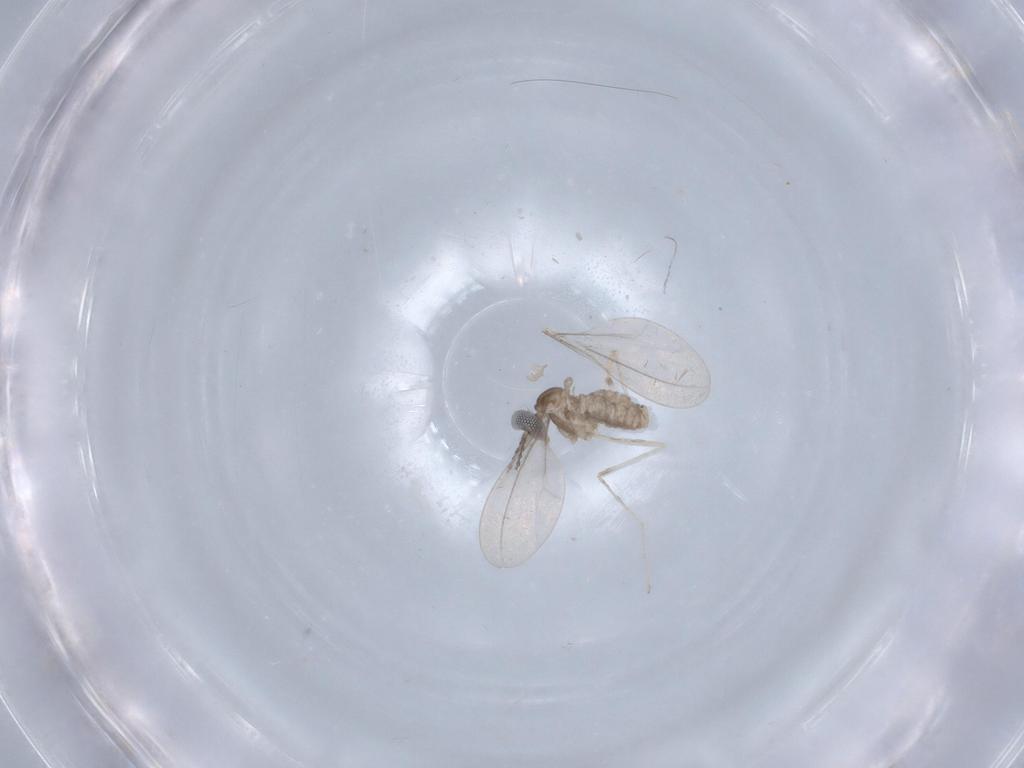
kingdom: Animalia
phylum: Arthropoda
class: Insecta
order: Diptera
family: Cecidomyiidae
